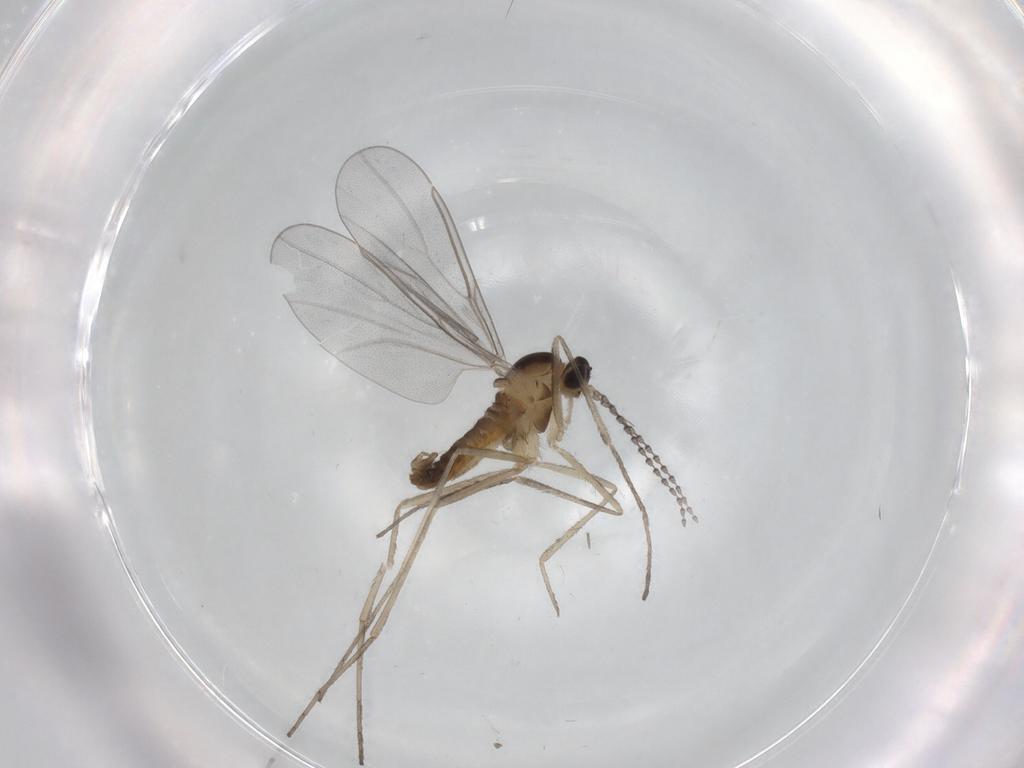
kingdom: Animalia
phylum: Arthropoda
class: Insecta
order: Diptera
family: Cecidomyiidae
